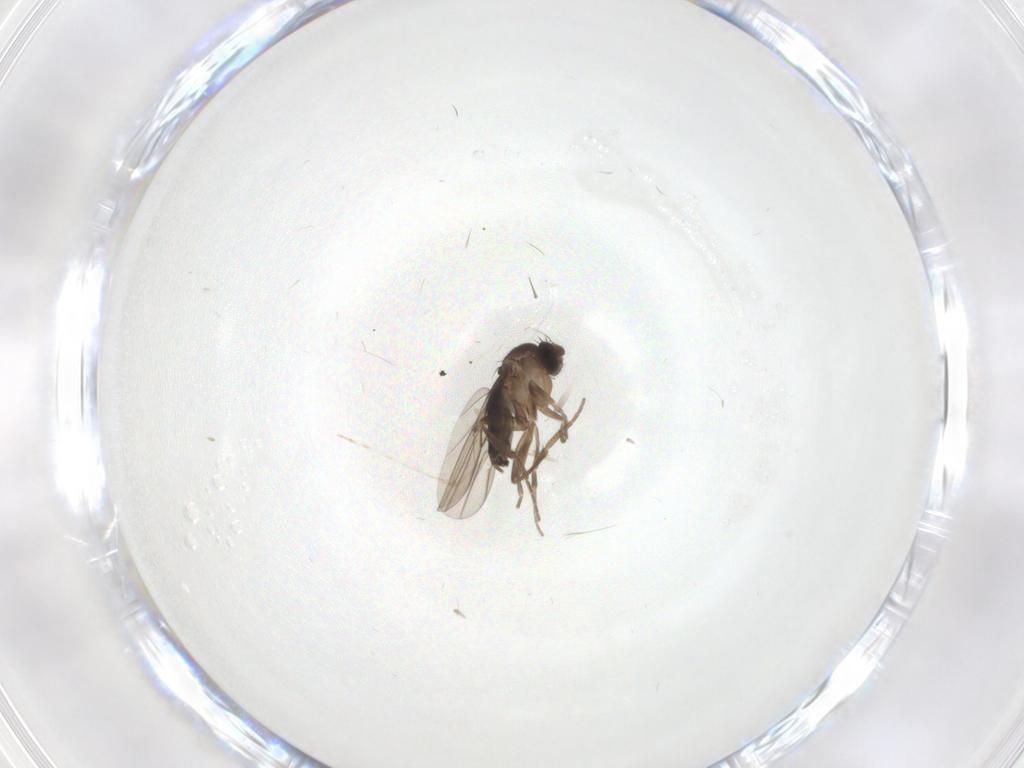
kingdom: Animalia
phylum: Arthropoda
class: Insecta
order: Diptera
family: Phoridae
